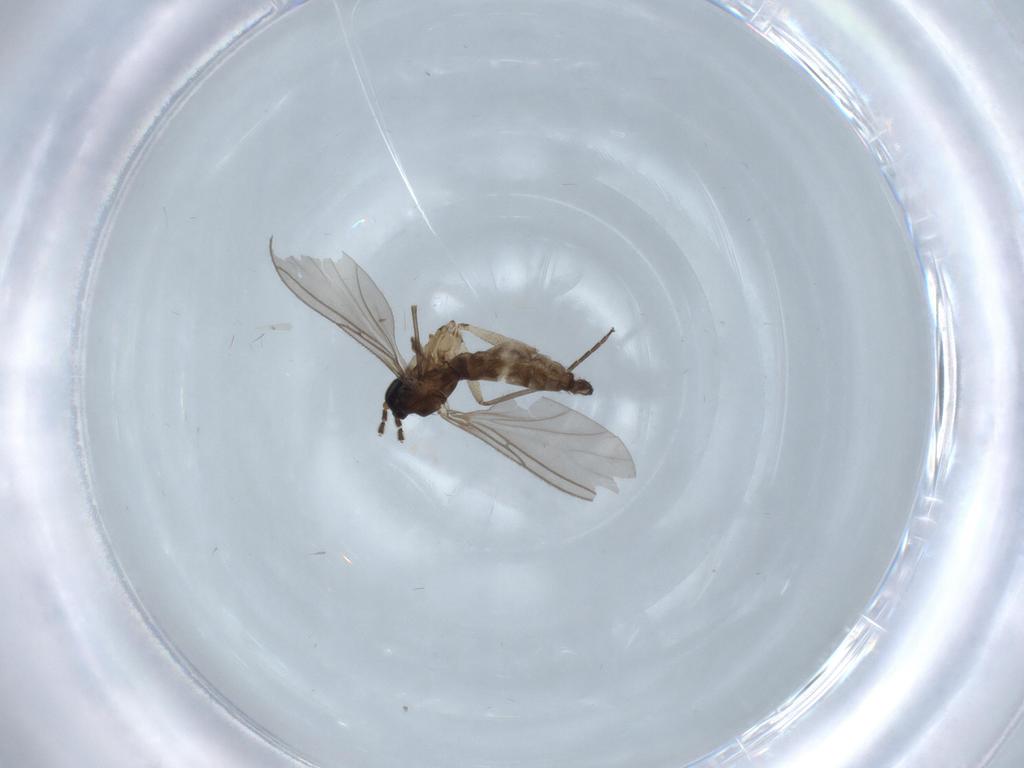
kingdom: Animalia
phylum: Arthropoda
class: Insecta
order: Diptera
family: Sciaridae
